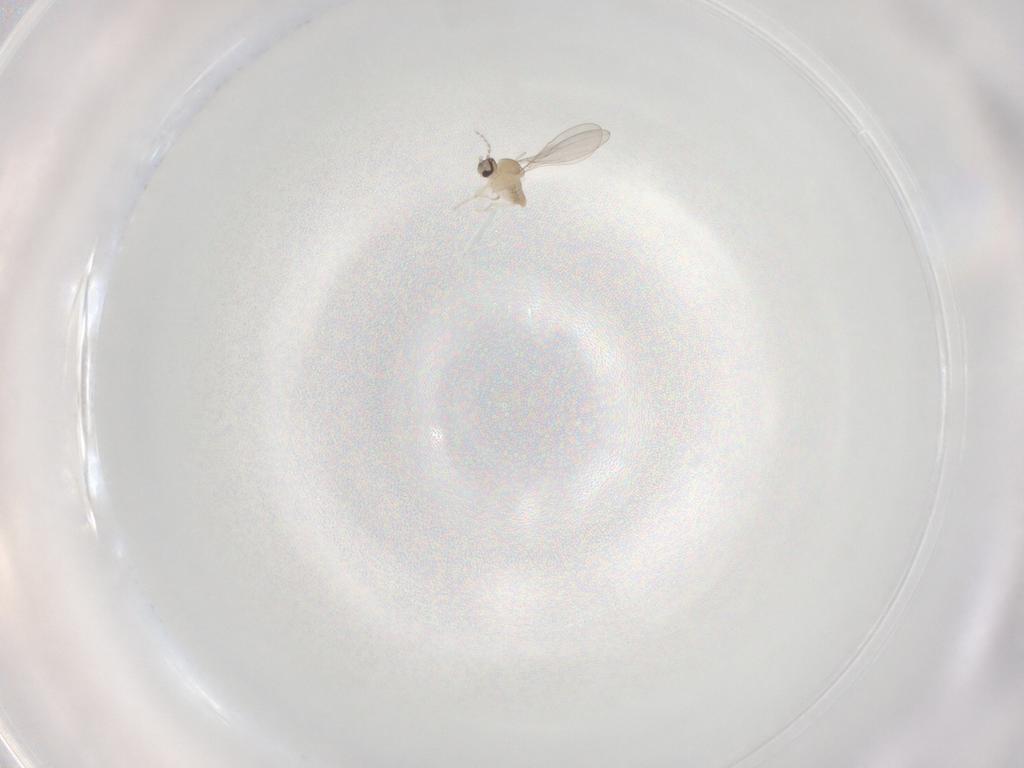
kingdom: Animalia
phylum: Arthropoda
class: Insecta
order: Diptera
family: Cecidomyiidae
